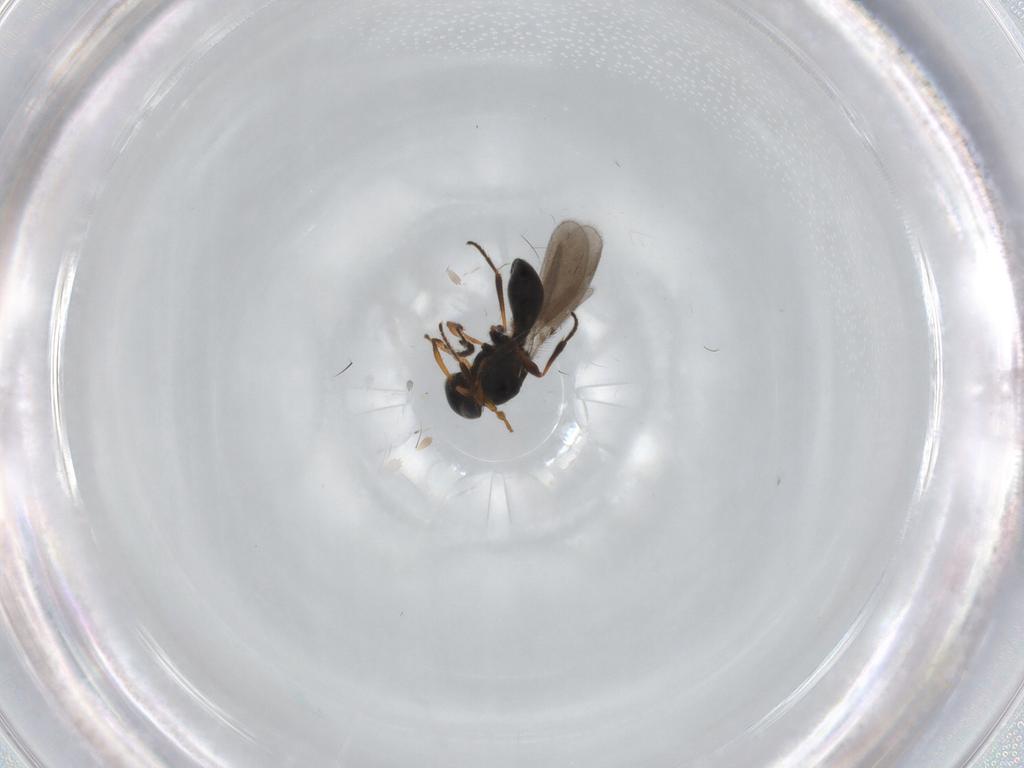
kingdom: Animalia
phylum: Arthropoda
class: Insecta
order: Hymenoptera
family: Platygastridae
